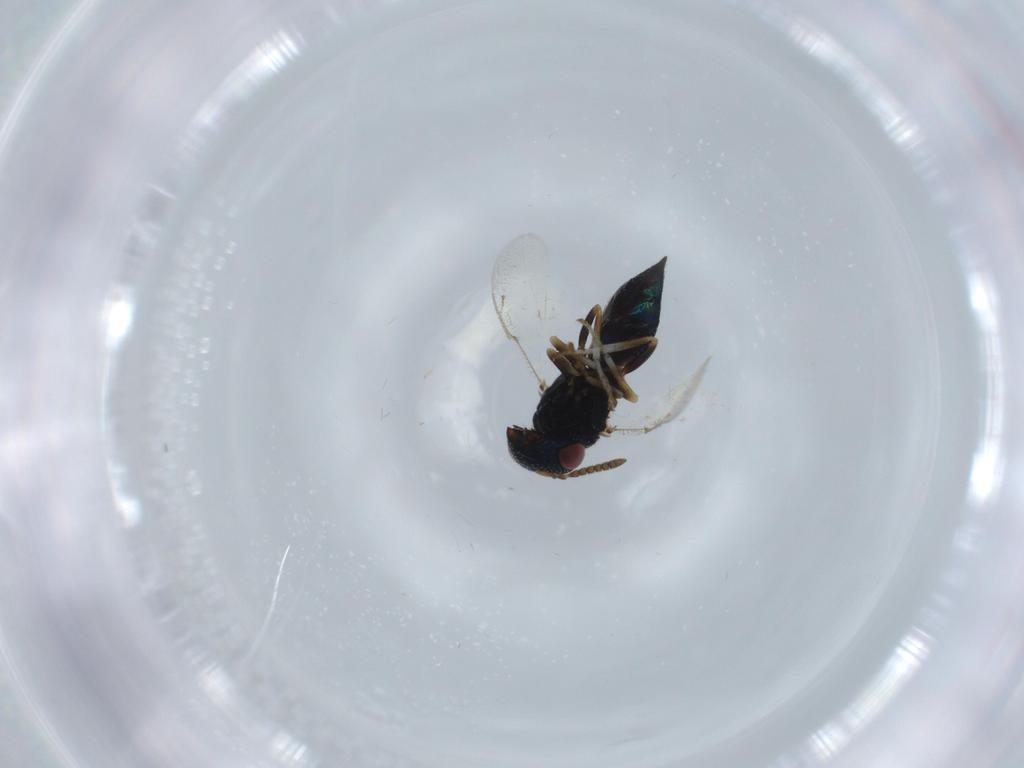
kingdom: Animalia
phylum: Arthropoda
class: Insecta
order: Hymenoptera
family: Pteromalidae
